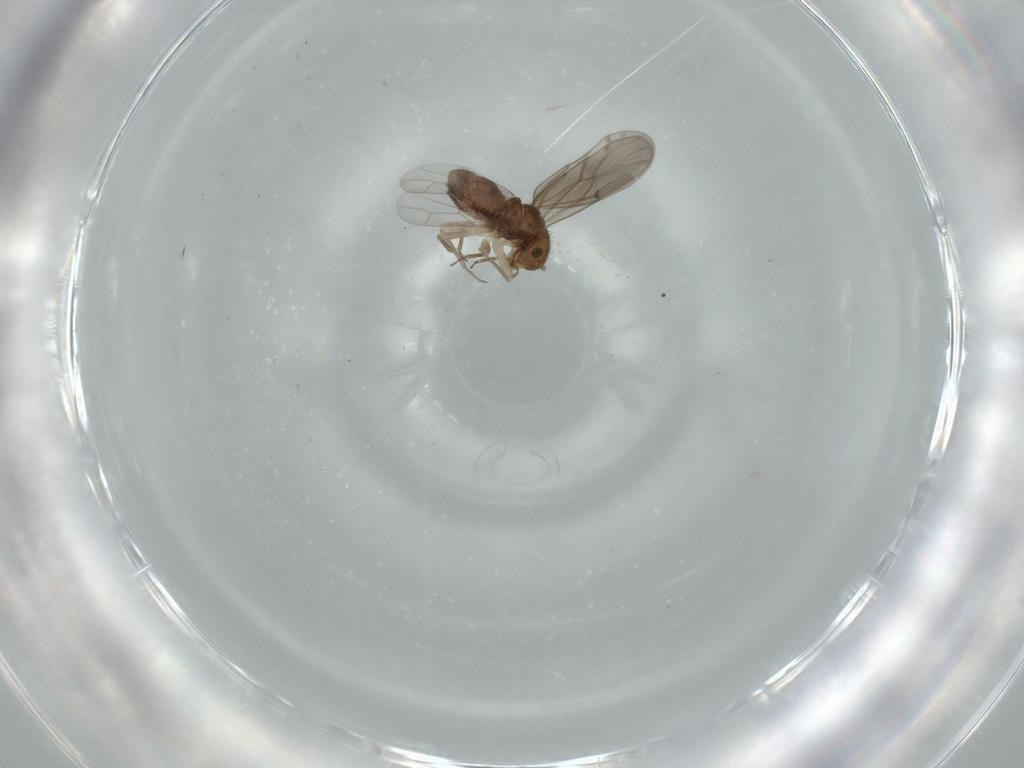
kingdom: Animalia
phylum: Arthropoda
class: Insecta
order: Psocodea
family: Ectopsocidae
